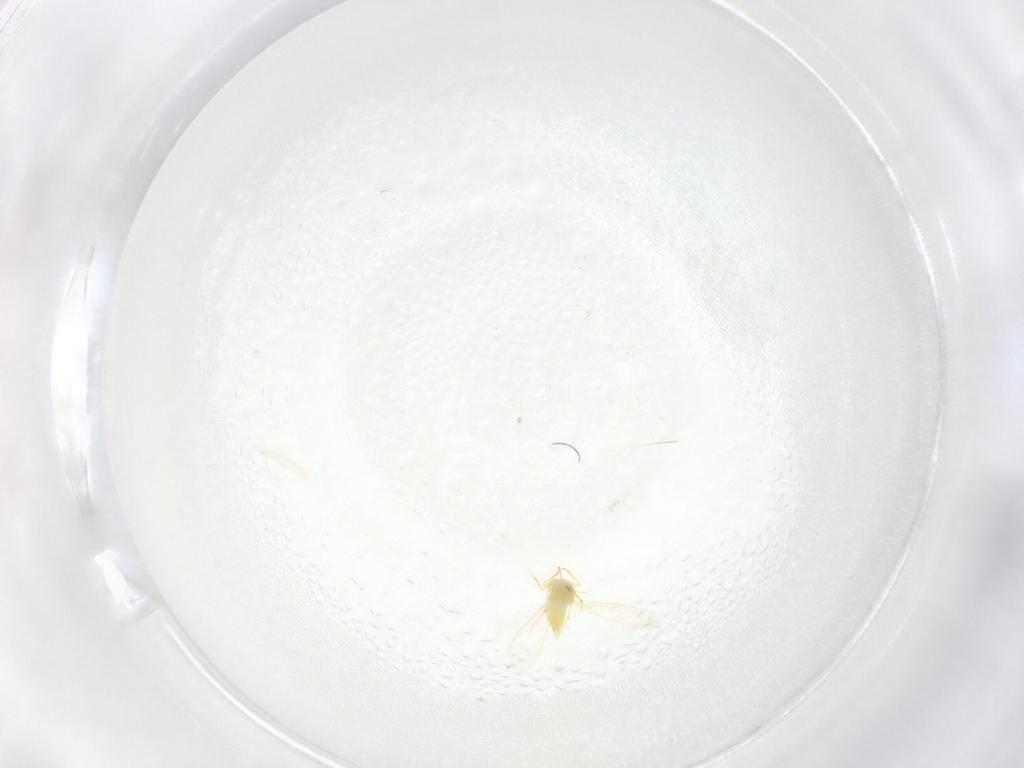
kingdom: Animalia
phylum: Arthropoda
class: Insecta
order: Hemiptera
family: Aleyrodidae
